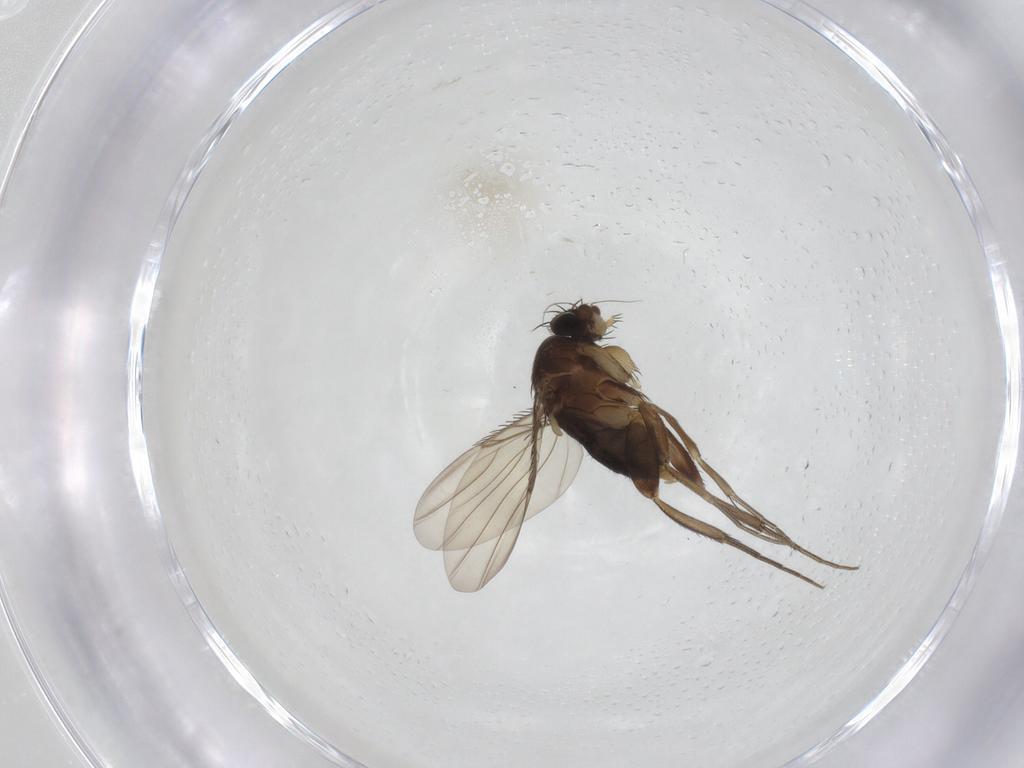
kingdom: Animalia
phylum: Arthropoda
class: Insecta
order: Diptera
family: Phoridae
